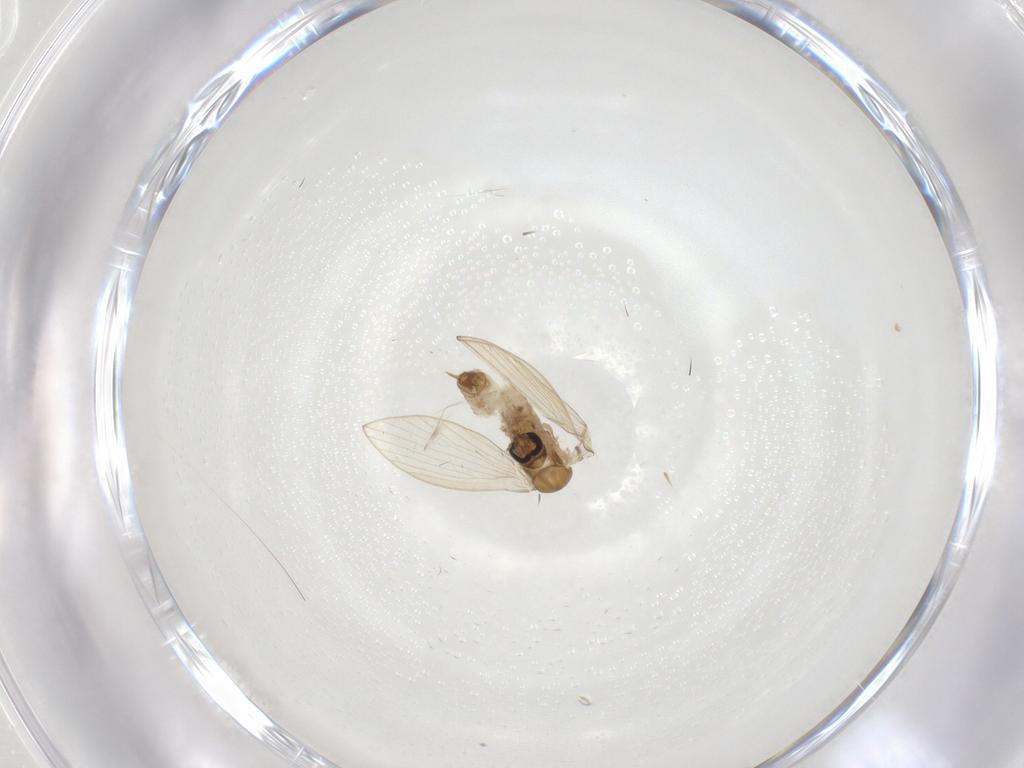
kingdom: Animalia
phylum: Arthropoda
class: Insecta
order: Diptera
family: Psychodidae
